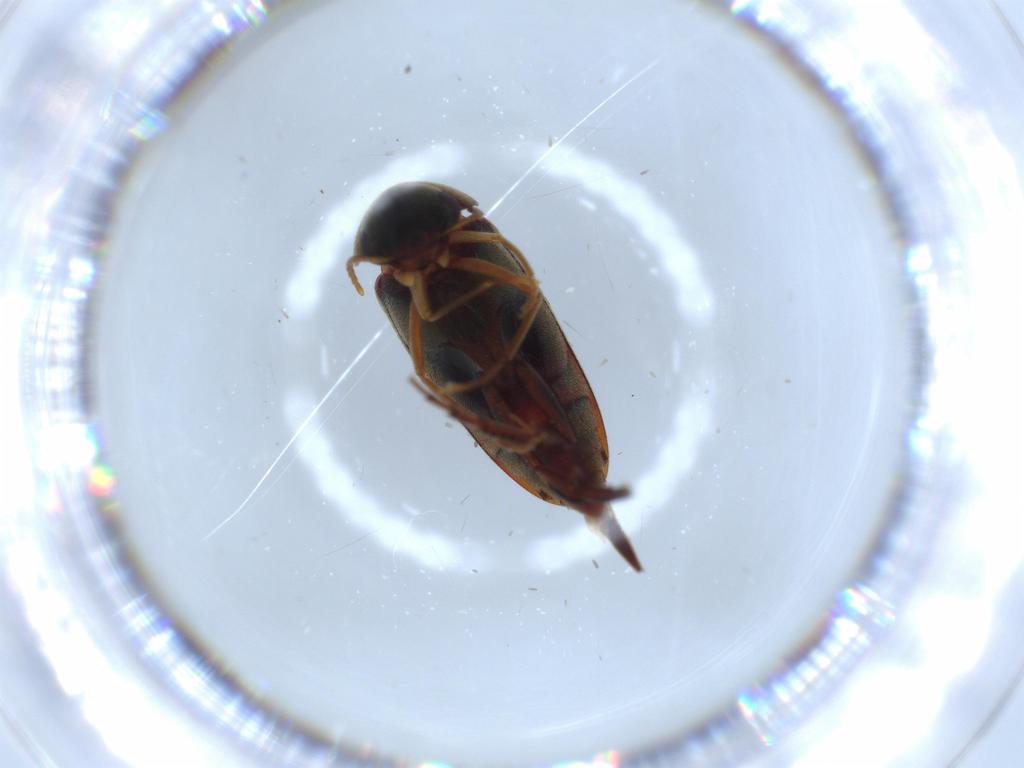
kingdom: Animalia
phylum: Arthropoda
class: Insecta
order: Coleoptera
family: Mordellidae
